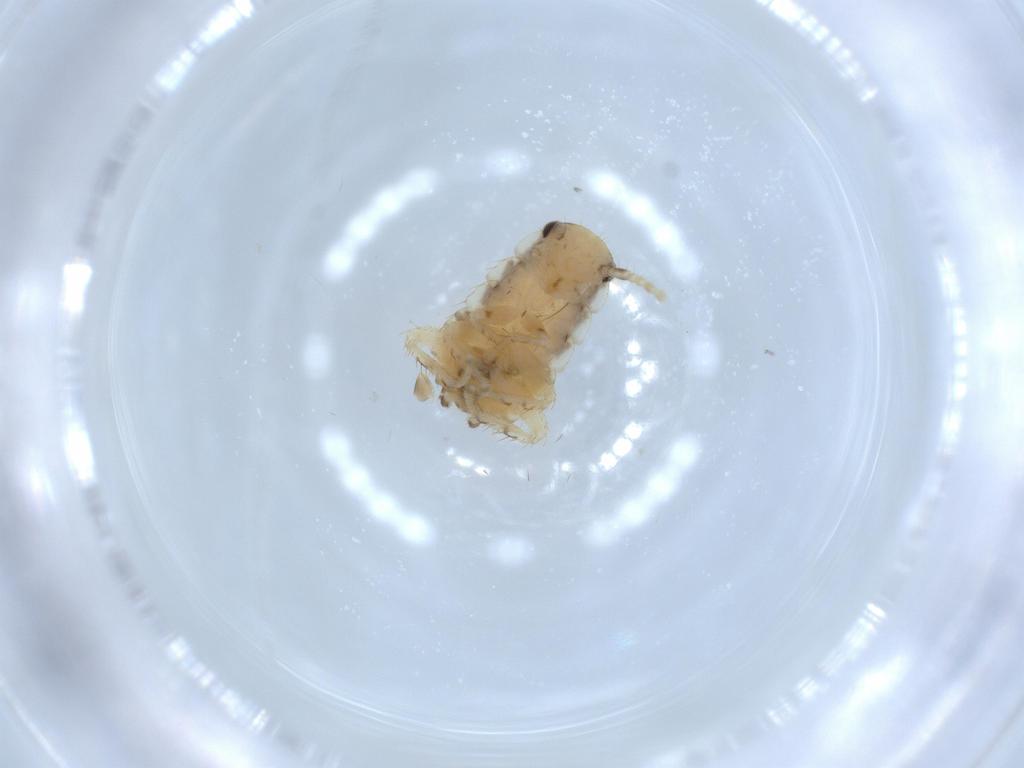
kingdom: Animalia
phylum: Arthropoda
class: Insecta
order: Blattodea
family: Ectobiidae
